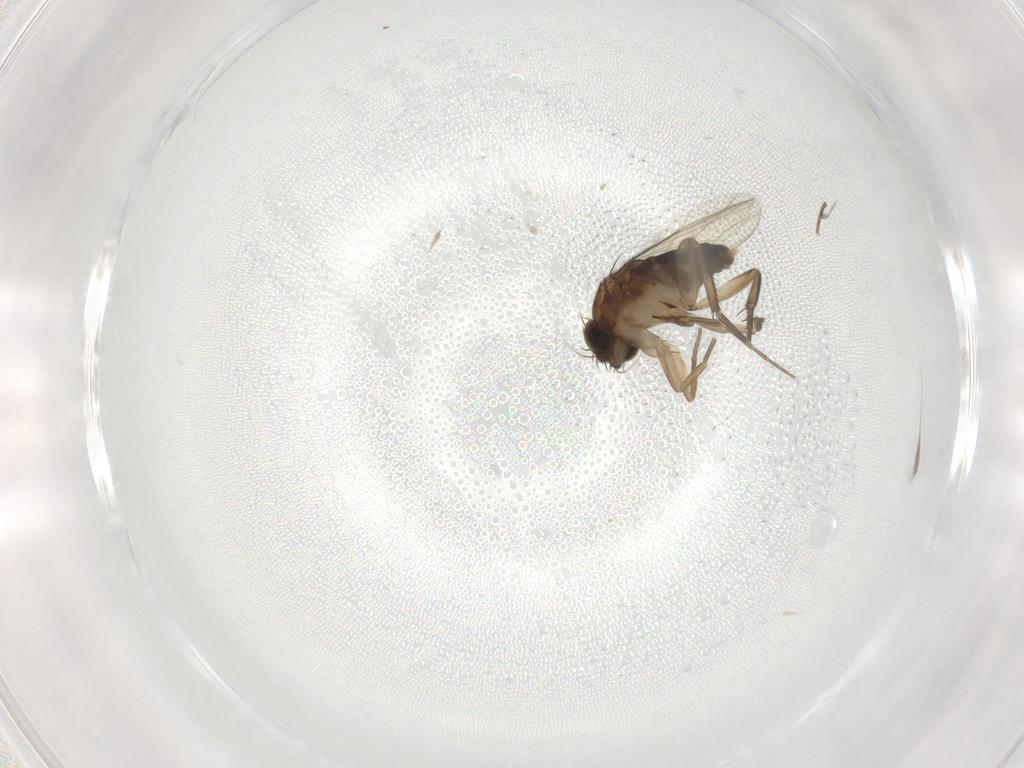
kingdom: Animalia
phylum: Arthropoda
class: Insecta
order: Diptera
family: Phoridae
